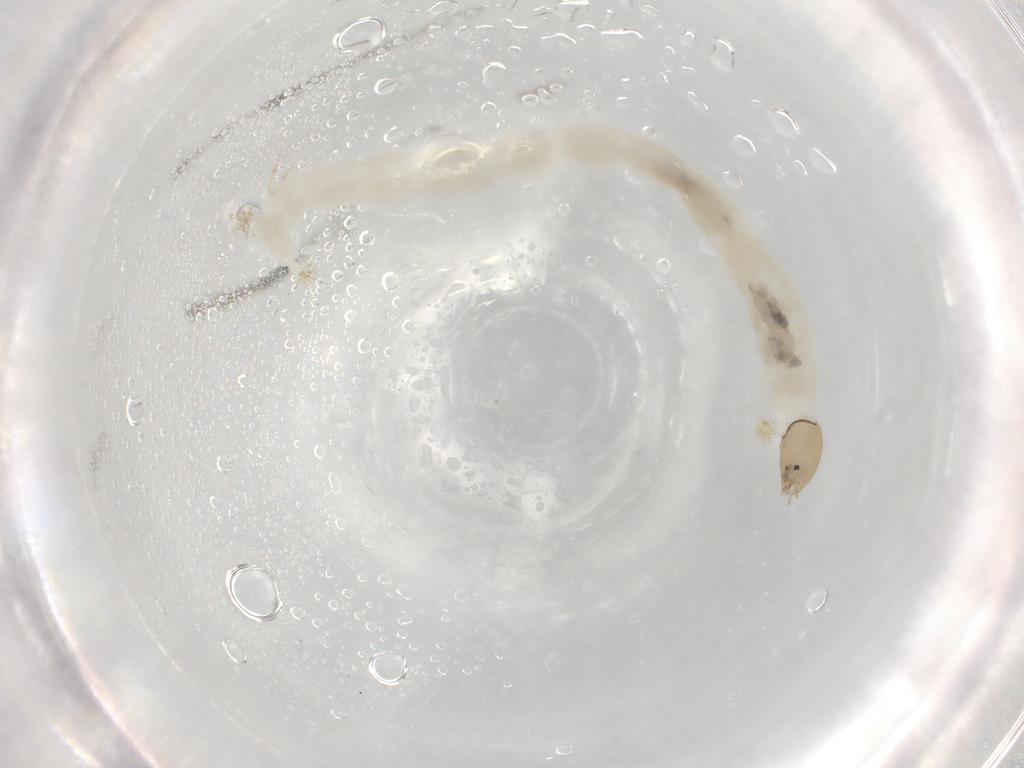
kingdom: Animalia
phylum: Arthropoda
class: Insecta
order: Diptera
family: Chironomidae
